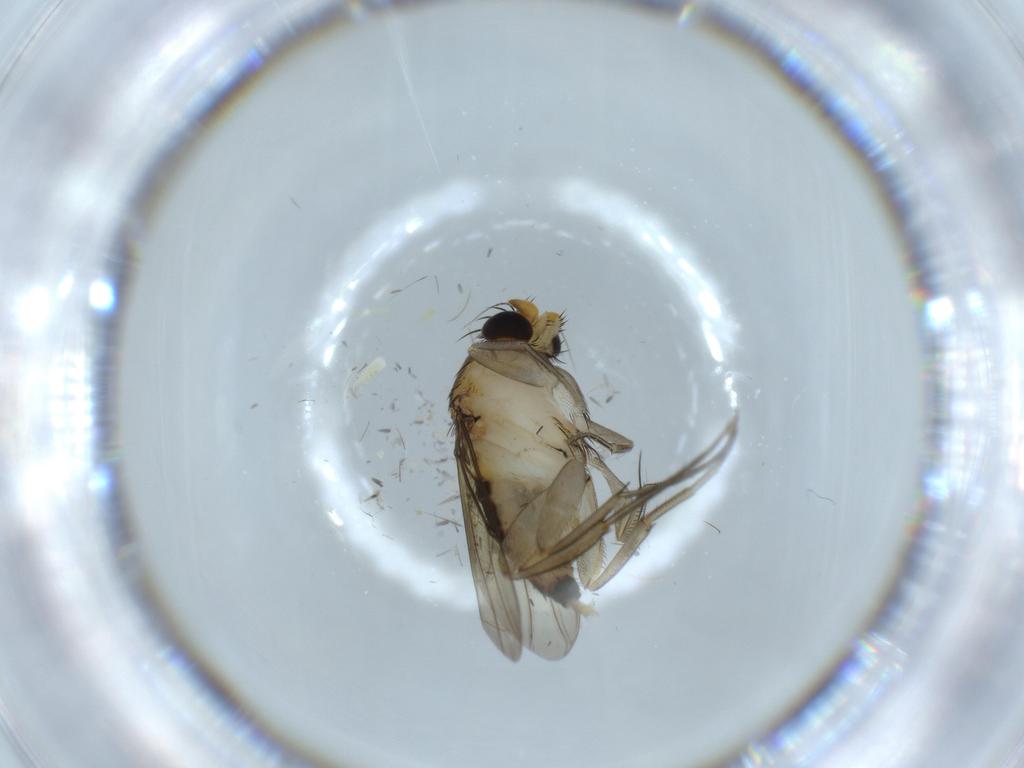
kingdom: Animalia
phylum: Arthropoda
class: Insecta
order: Diptera
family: Phoridae
